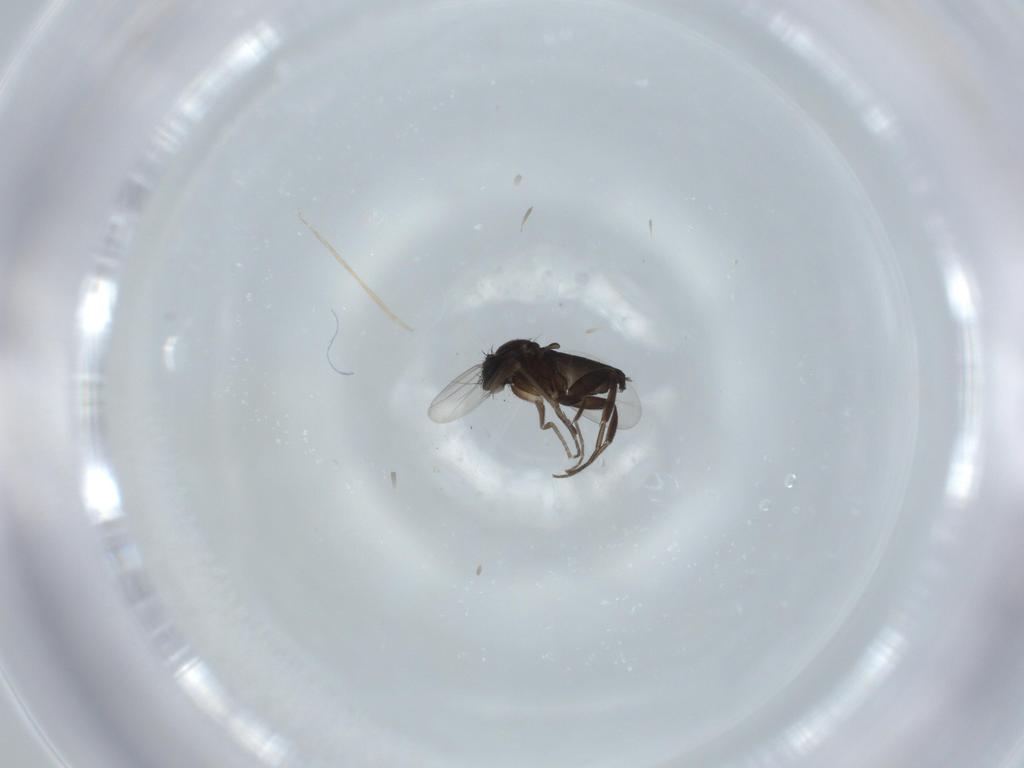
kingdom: Animalia
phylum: Arthropoda
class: Insecta
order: Diptera
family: Phoridae
